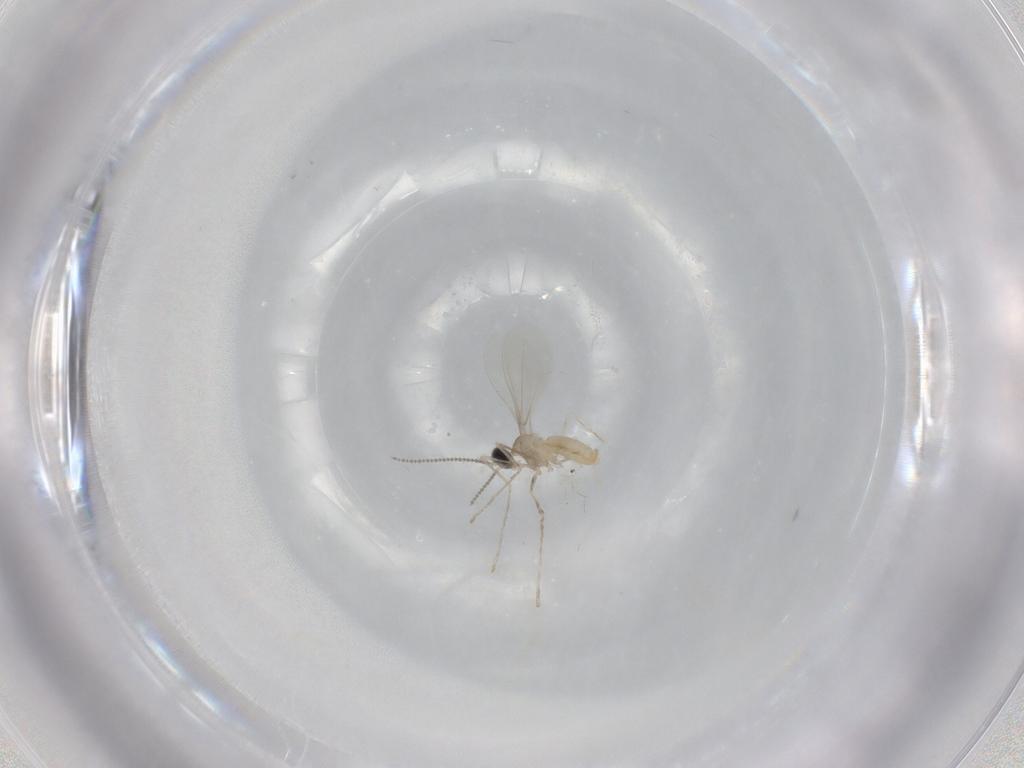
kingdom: Animalia
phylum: Arthropoda
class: Insecta
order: Diptera
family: Cecidomyiidae
